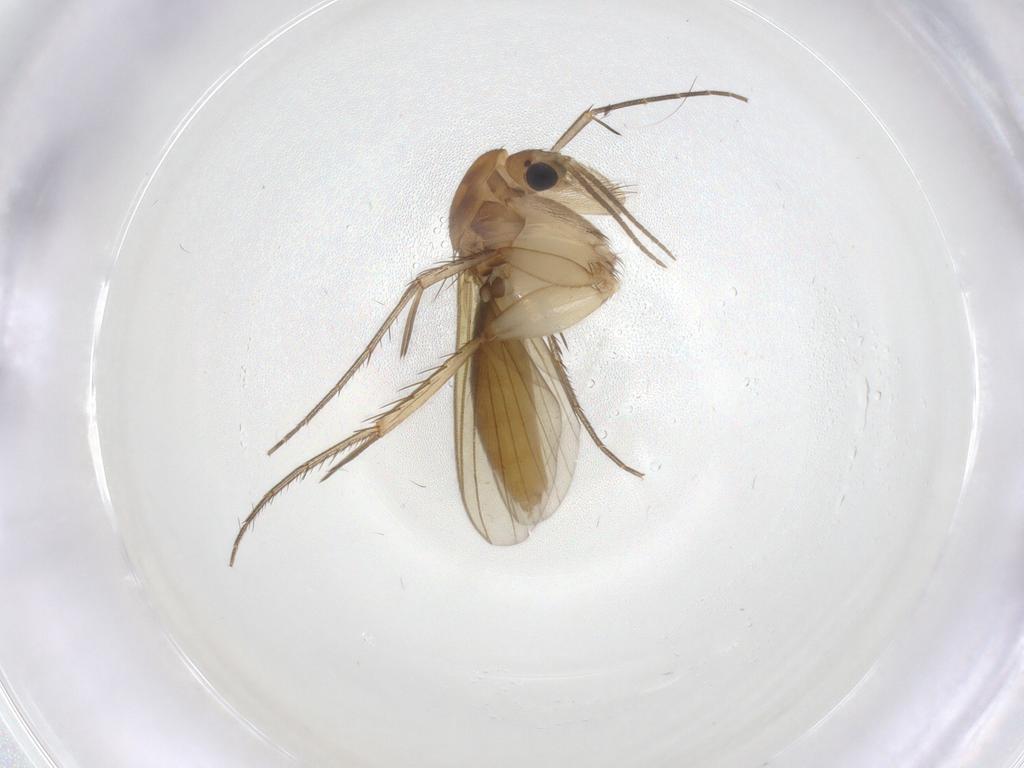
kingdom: Animalia
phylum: Arthropoda
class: Insecta
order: Diptera
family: Mycetophilidae
